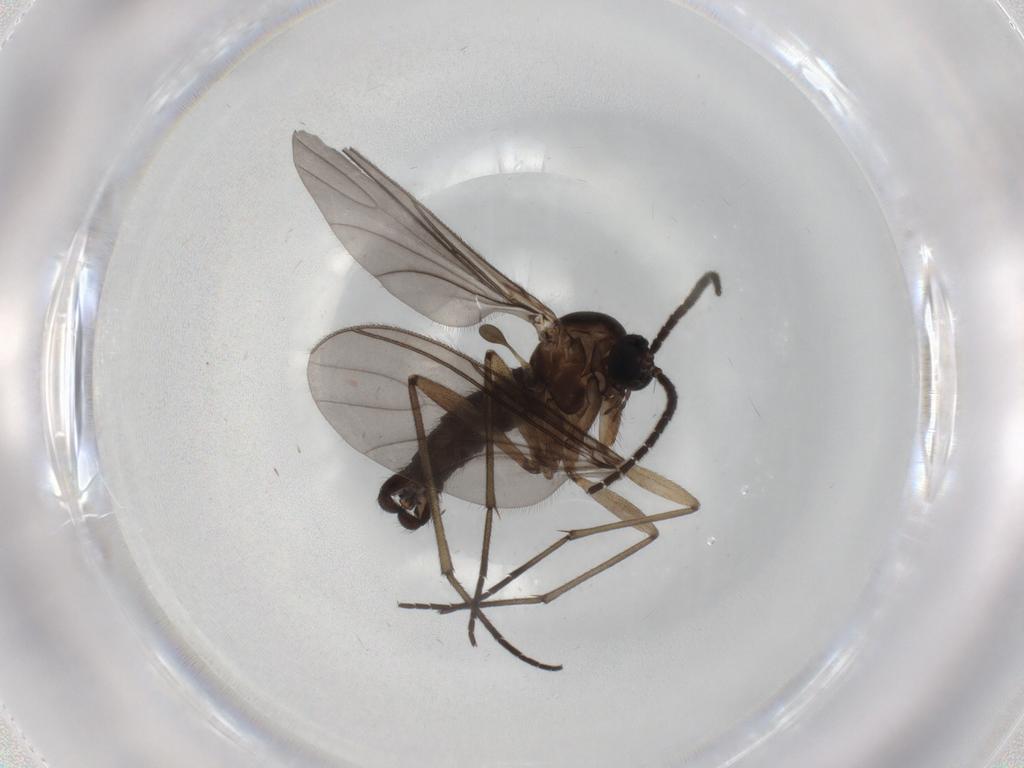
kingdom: Animalia
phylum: Arthropoda
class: Insecta
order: Diptera
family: Sciaridae
